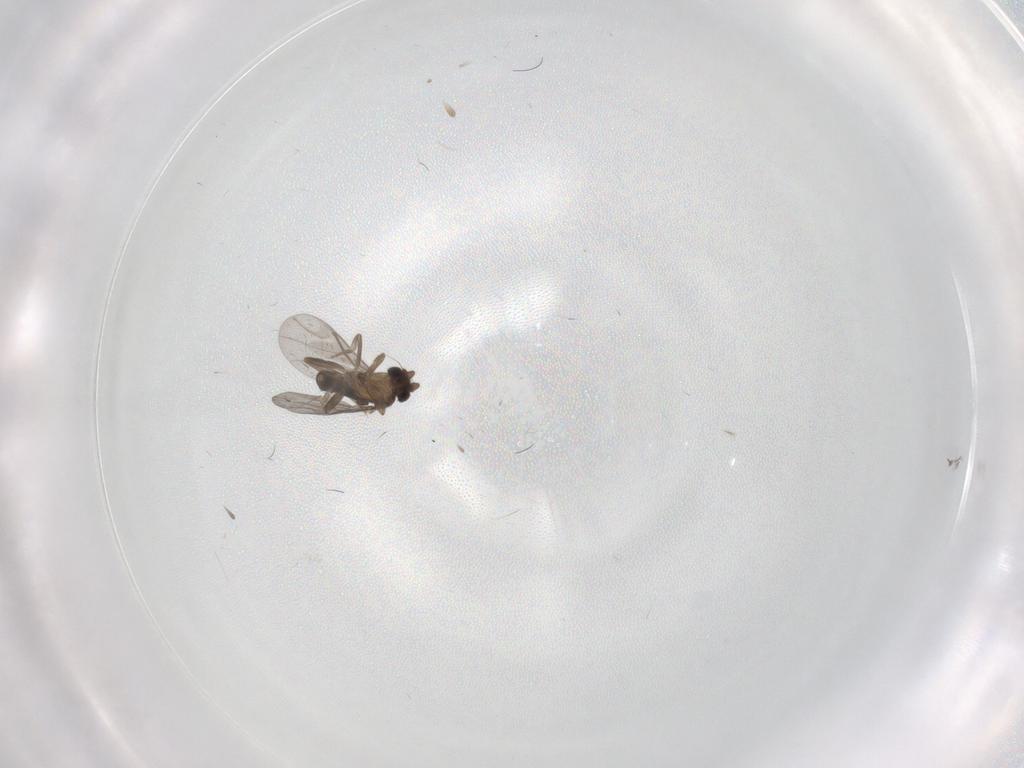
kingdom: Animalia
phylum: Arthropoda
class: Insecta
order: Diptera
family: Limoniidae
